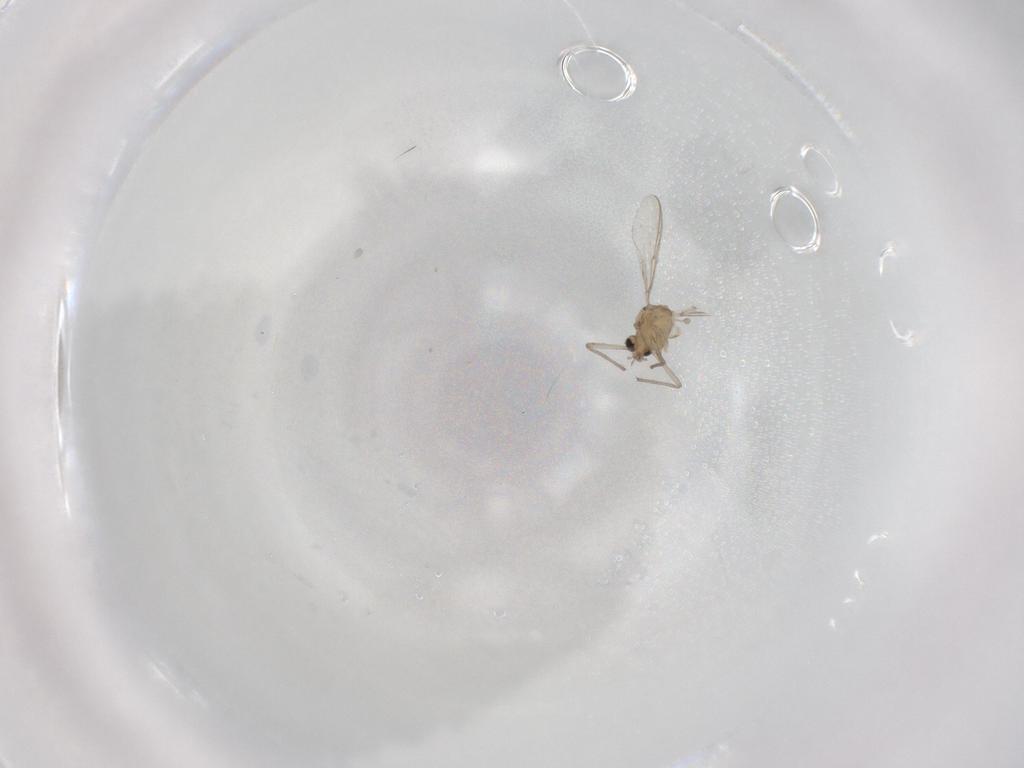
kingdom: Animalia
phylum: Arthropoda
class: Insecta
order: Diptera
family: Chironomidae
